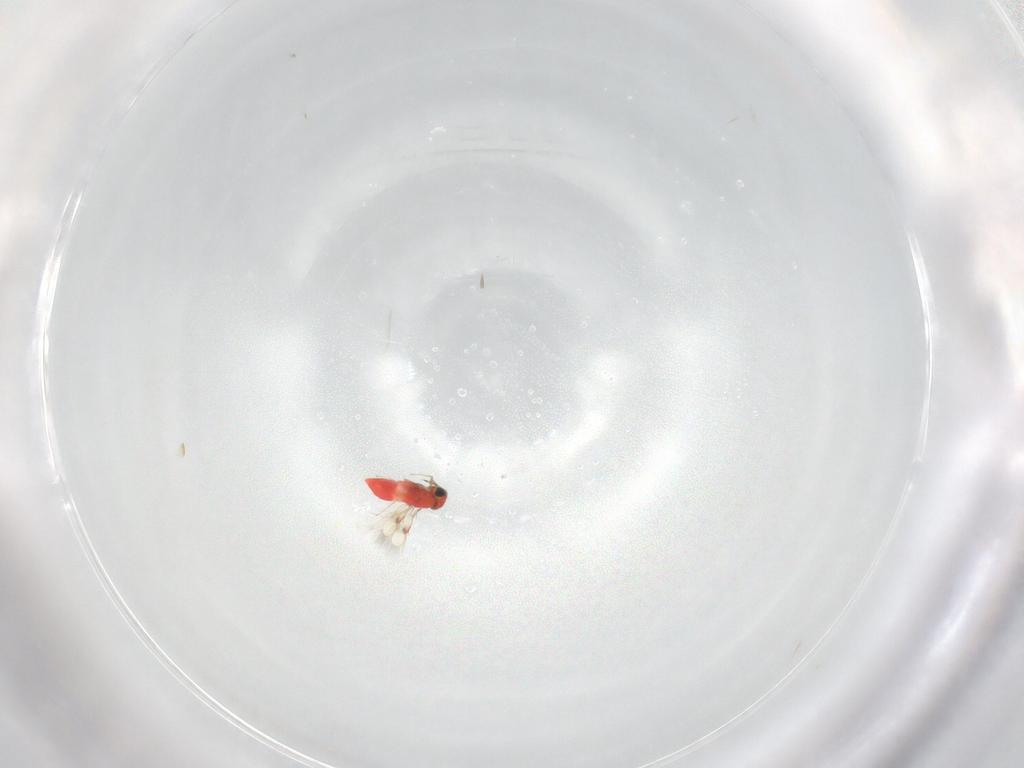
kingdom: Animalia
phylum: Arthropoda
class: Insecta
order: Hymenoptera
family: Trichogrammatidae
